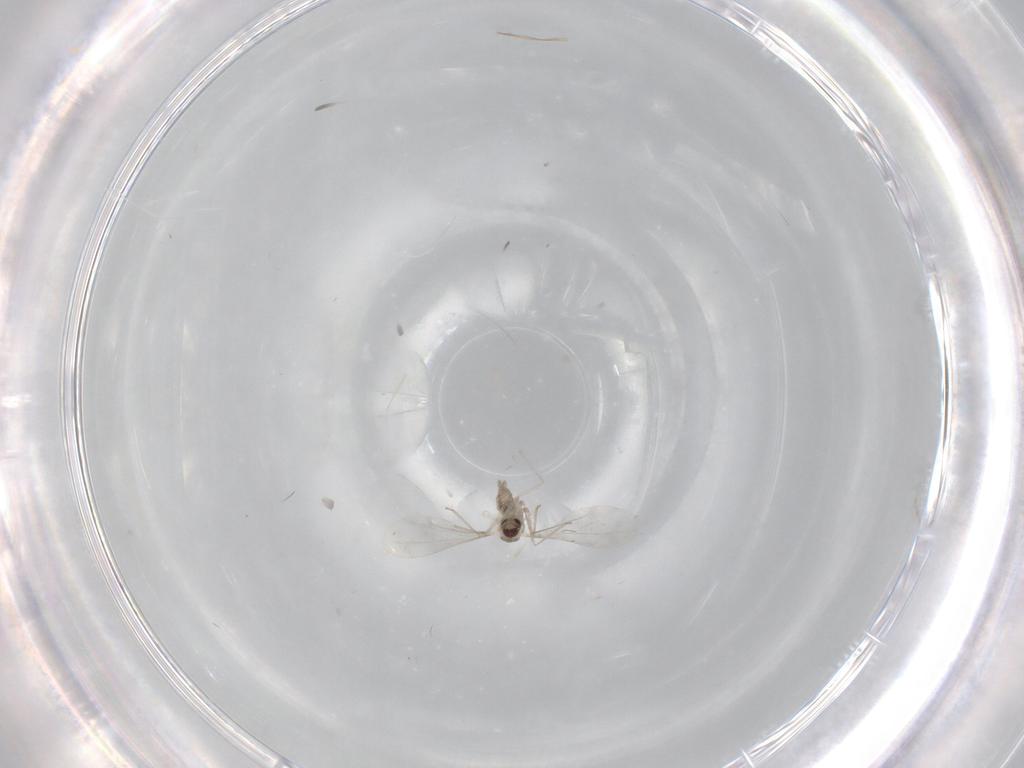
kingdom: Animalia
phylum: Arthropoda
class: Insecta
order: Diptera
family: Cecidomyiidae
